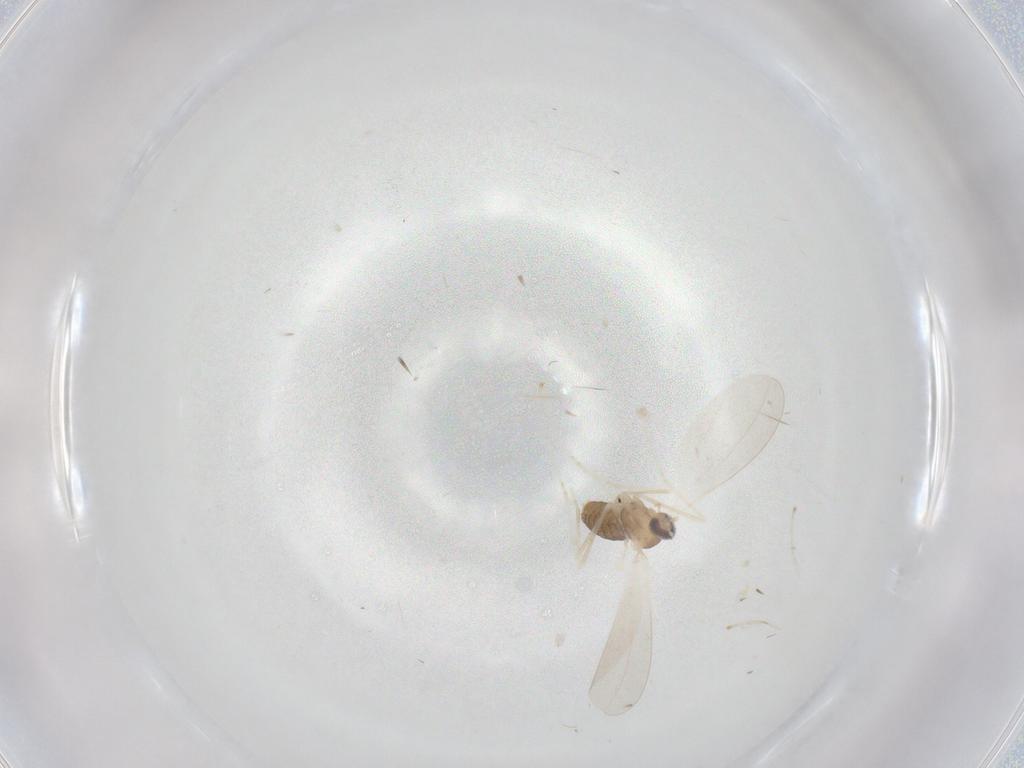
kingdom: Animalia
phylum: Arthropoda
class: Insecta
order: Diptera
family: Cecidomyiidae
